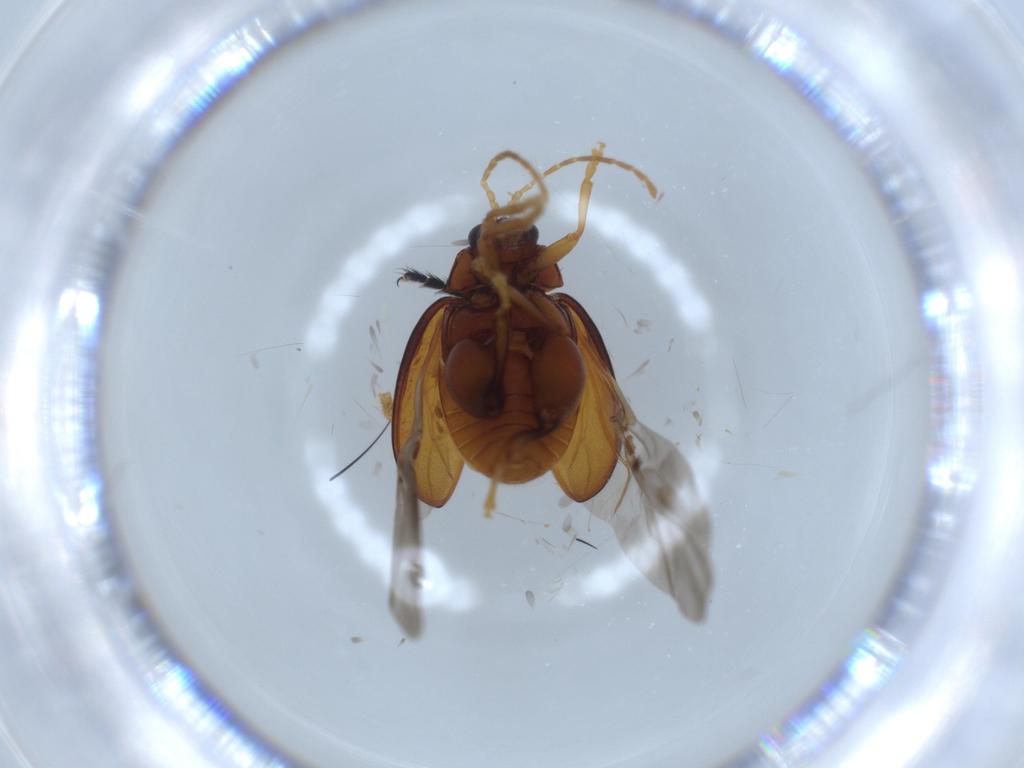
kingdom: Animalia
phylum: Arthropoda
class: Insecta
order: Coleoptera
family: Chrysomelidae
